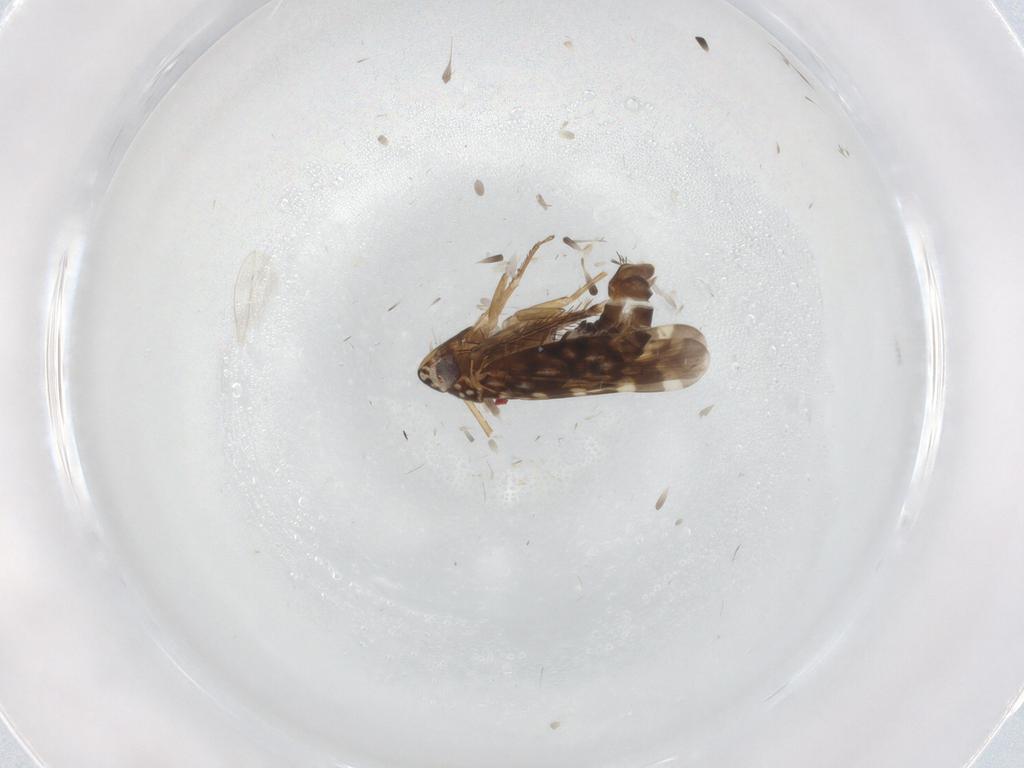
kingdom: Animalia
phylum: Arthropoda
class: Insecta
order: Hemiptera
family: Cicadellidae
